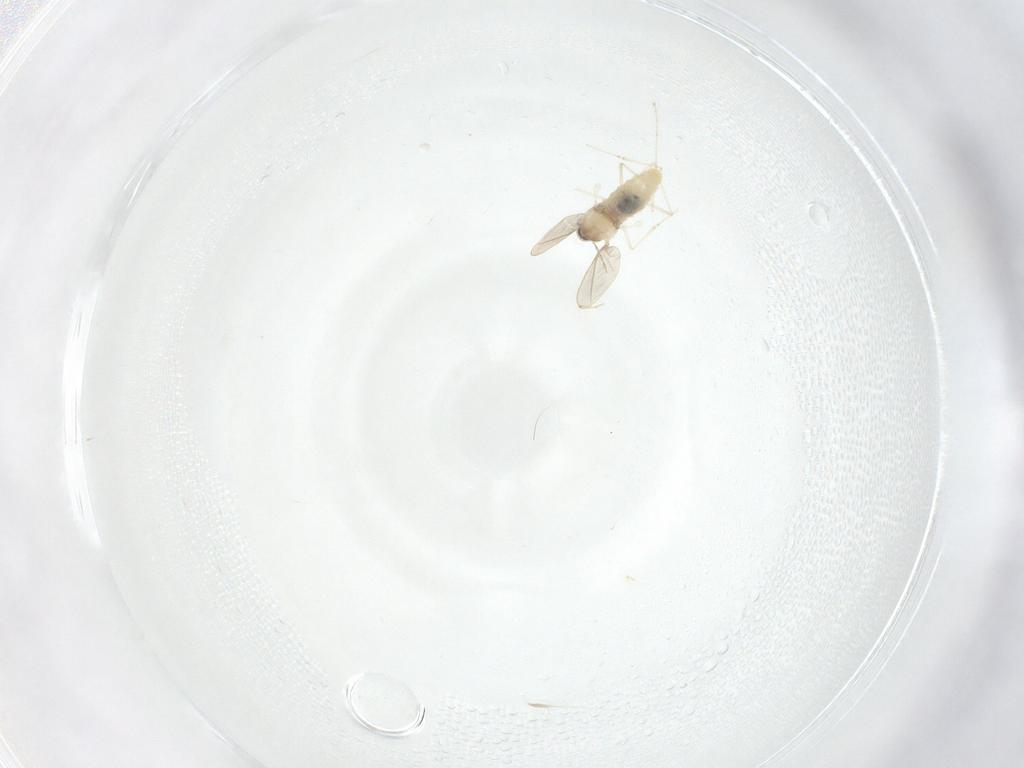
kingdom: Animalia
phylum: Arthropoda
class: Insecta
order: Diptera
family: Cecidomyiidae
